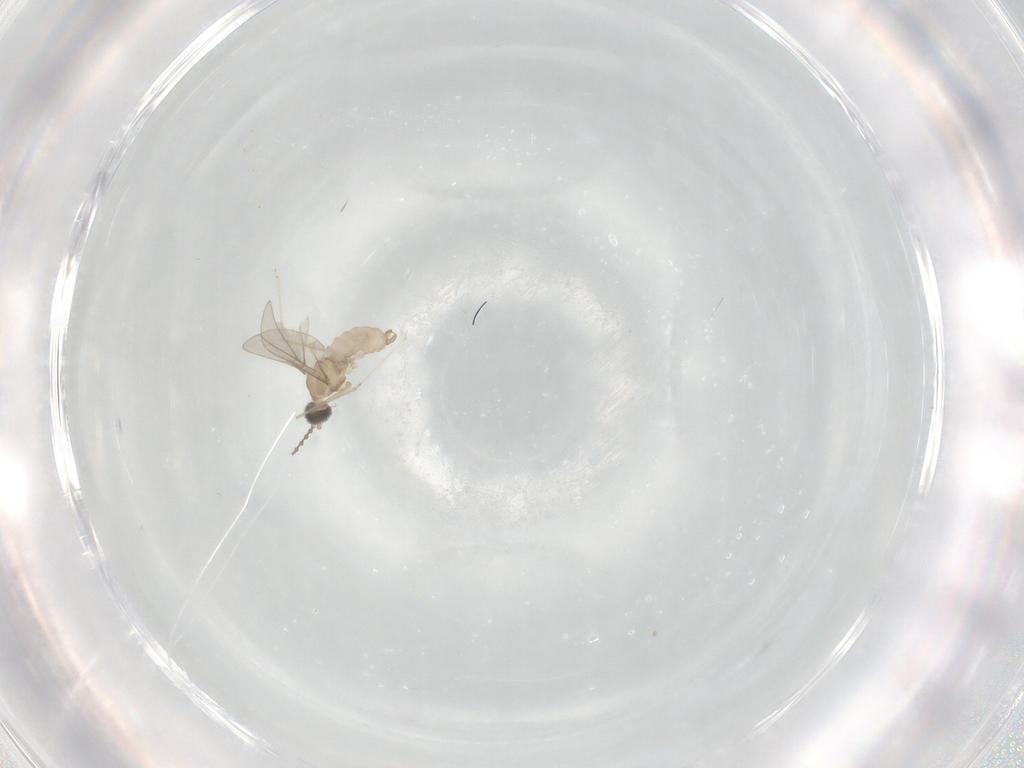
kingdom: Animalia
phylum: Arthropoda
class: Insecta
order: Diptera
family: Cecidomyiidae
